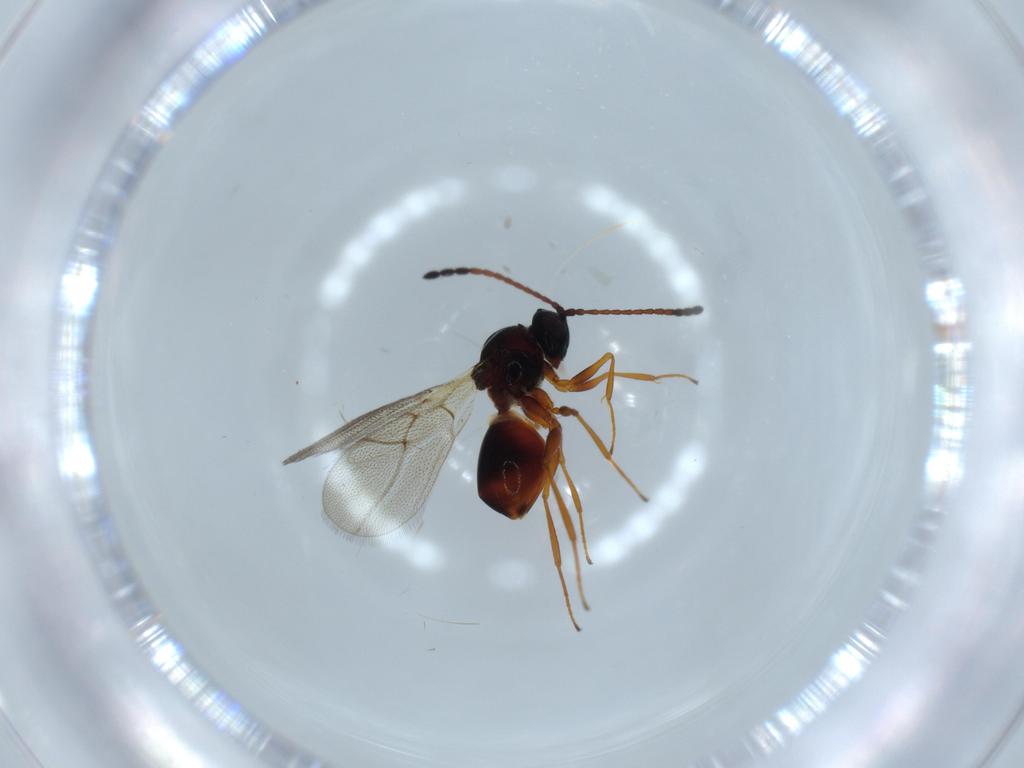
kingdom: Animalia
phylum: Arthropoda
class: Insecta
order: Hymenoptera
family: Figitidae
